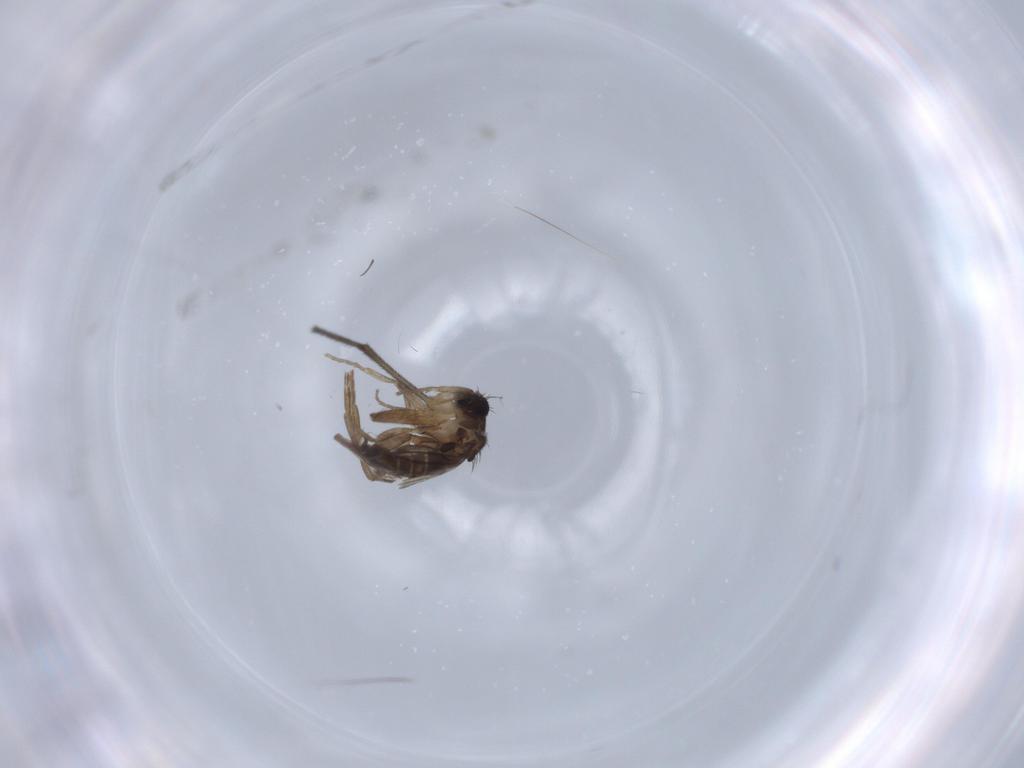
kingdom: Animalia
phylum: Arthropoda
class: Insecta
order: Diptera
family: Phoridae
